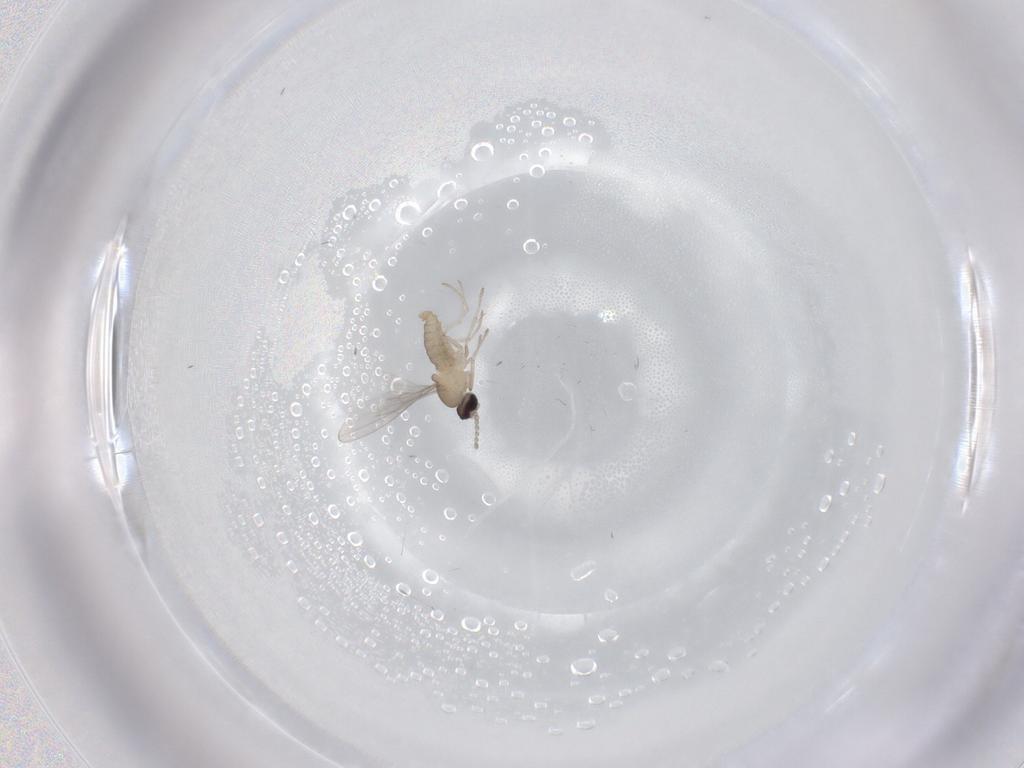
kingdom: Animalia
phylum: Arthropoda
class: Insecta
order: Diptera
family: Cecidomyiidae
